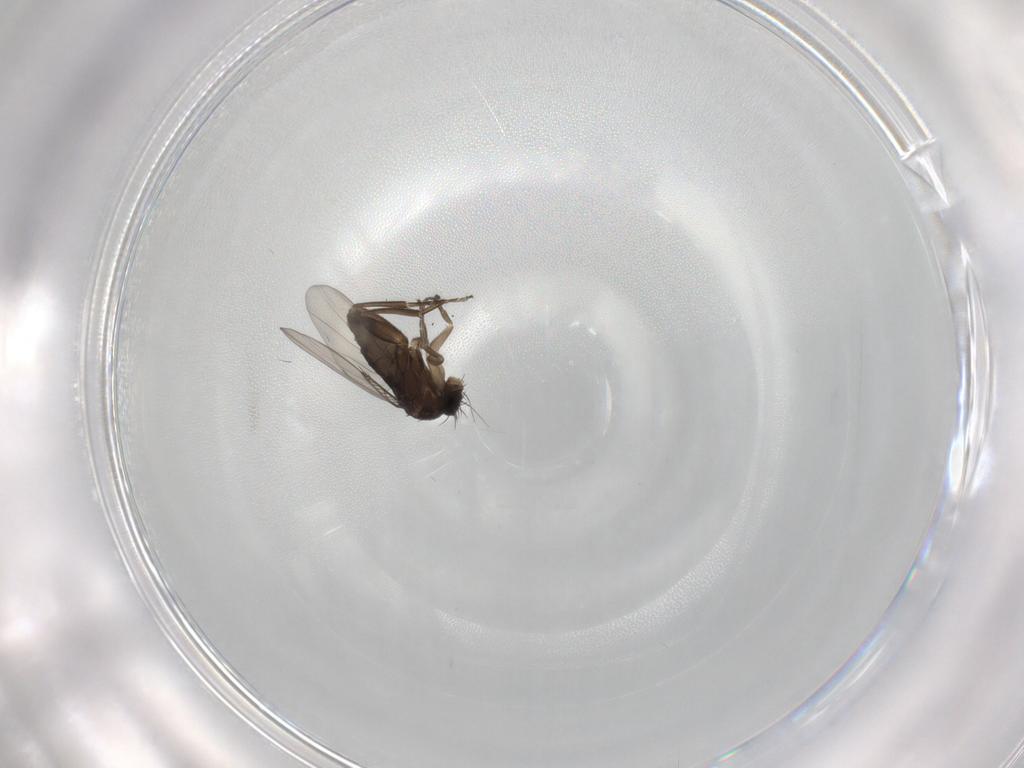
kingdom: Animalia
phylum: Arthropoda
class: Insecta
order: Diptera
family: Phoridae
